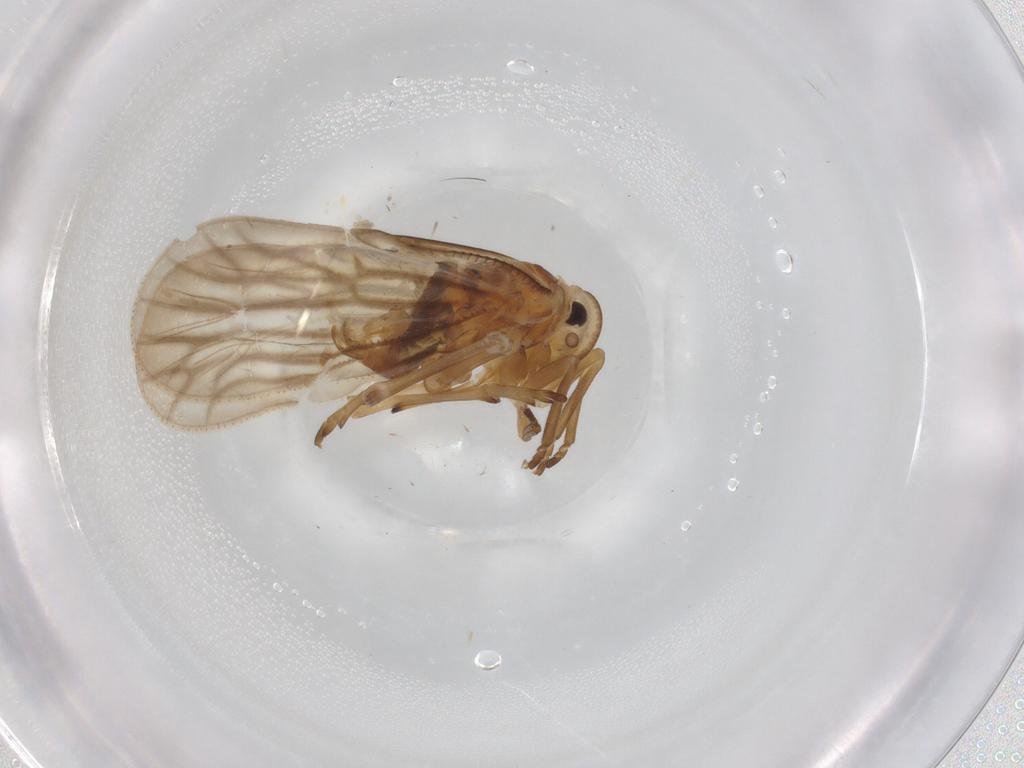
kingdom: Animalia
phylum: Arthropoda
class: Insecta
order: Hemiptera
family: Meenoplidae
